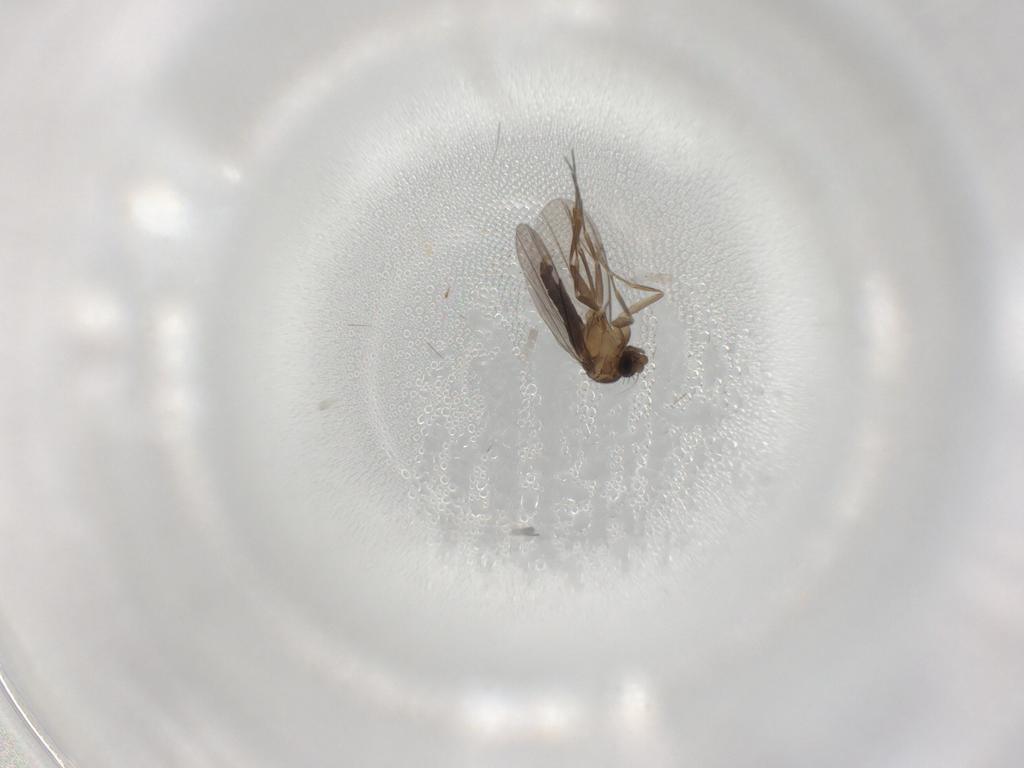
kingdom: Animalia
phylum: Arthropoda
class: Insecta
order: Diptera
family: Phoridae
